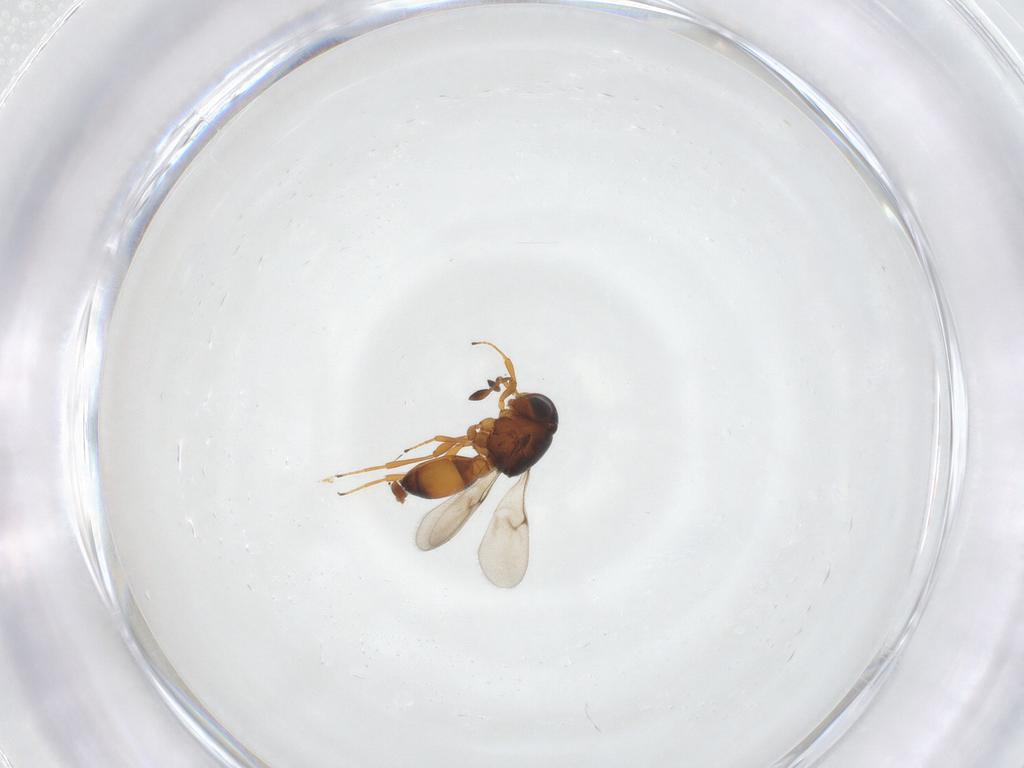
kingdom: Animalia
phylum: Arthropoda
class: Arachnida
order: Araneae
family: Pholcidae
